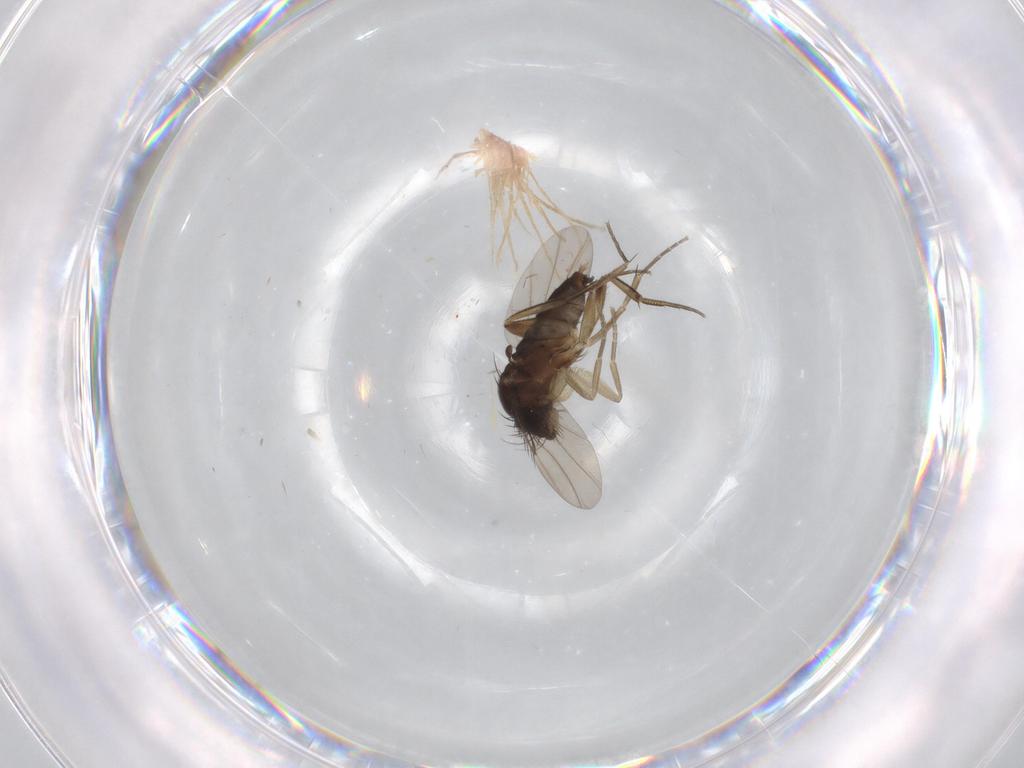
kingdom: Animalia
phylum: Arthropoda
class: Insecta
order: Diptera
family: Phoridae
